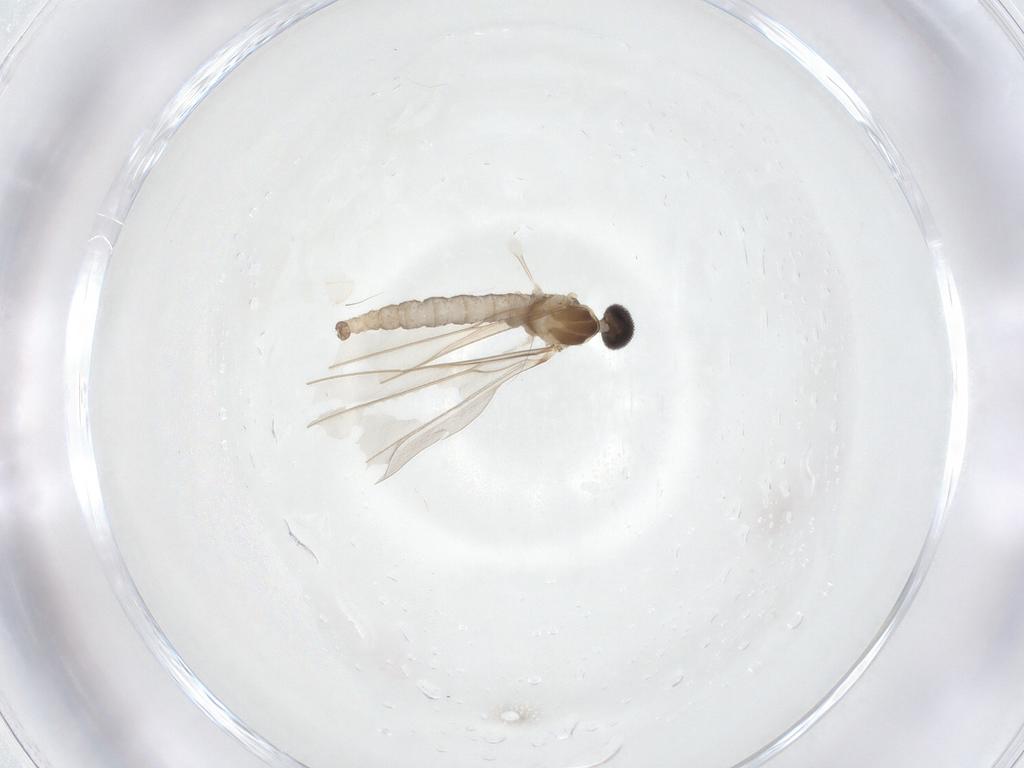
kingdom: Animalia
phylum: Arthropoda
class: Insecta
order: Diptera
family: Cecidomyiidae
